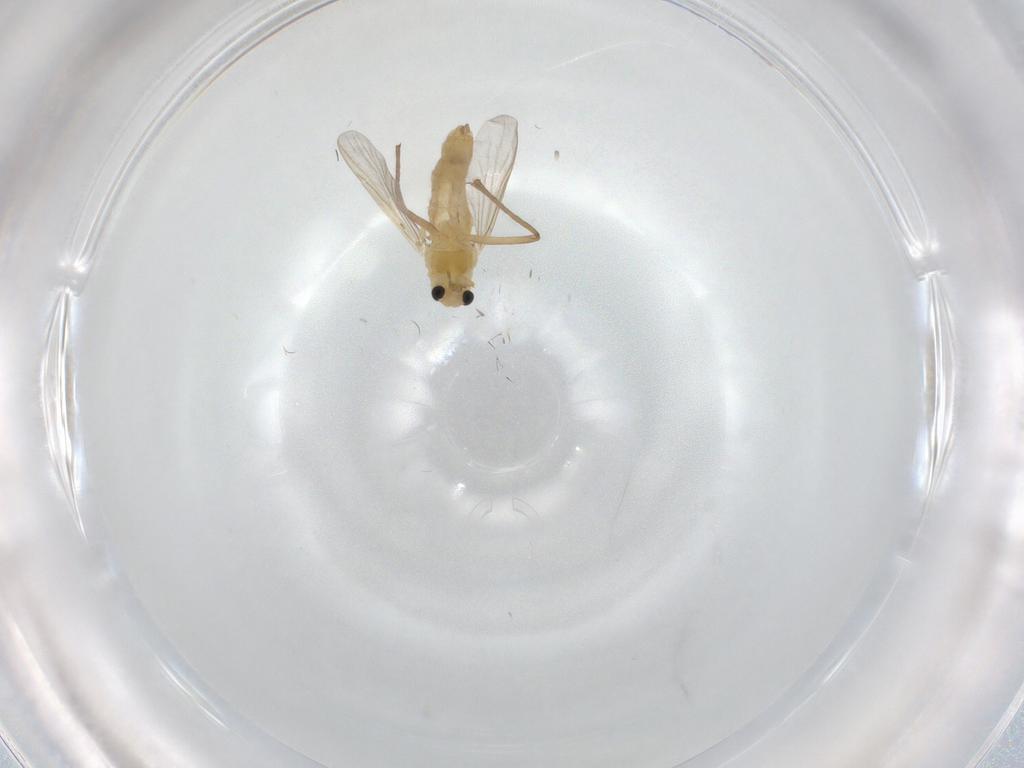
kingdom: Animalia
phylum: Arthropoda
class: Insecta
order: Diptera
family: Chironomidae
